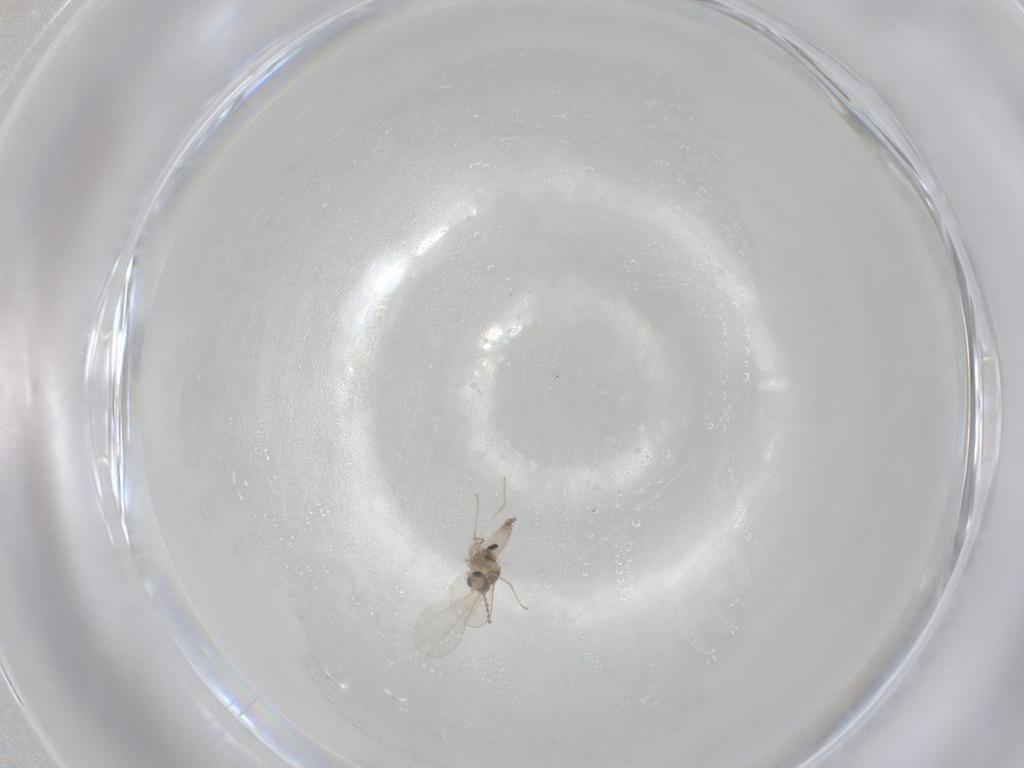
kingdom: Animalia
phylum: Arthropoda
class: Insecta
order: Diptera
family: Cecidomyiidae
